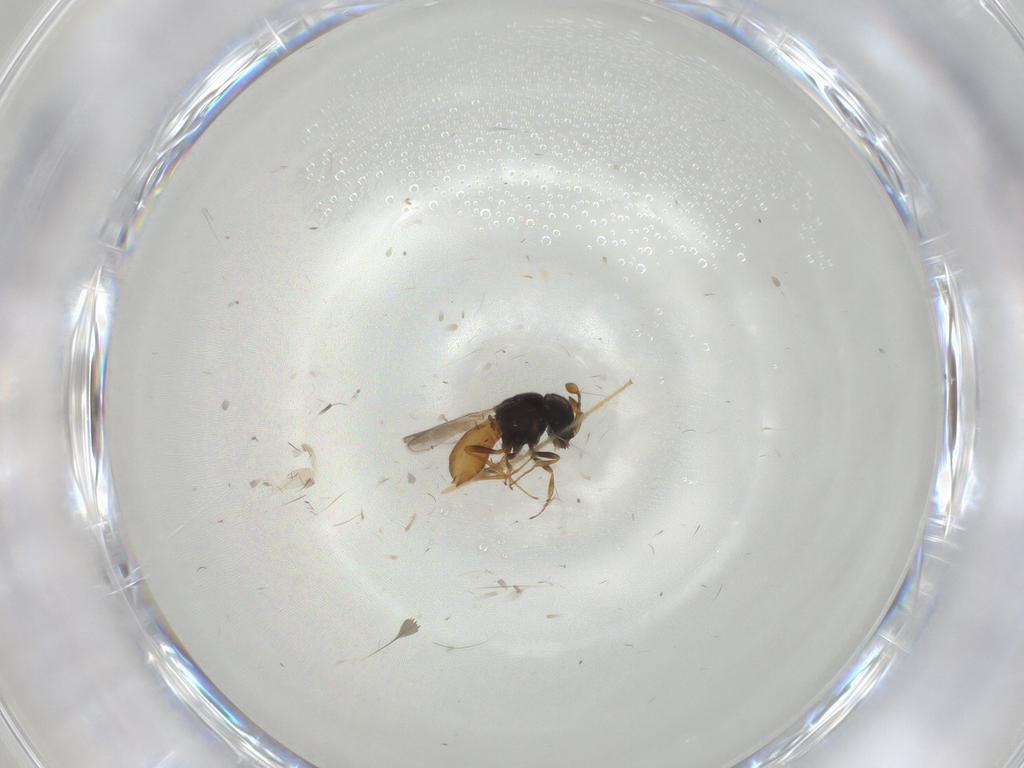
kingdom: Animalia
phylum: Arthropoda
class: Insecta
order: Hymenoptera
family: Scelionidae
